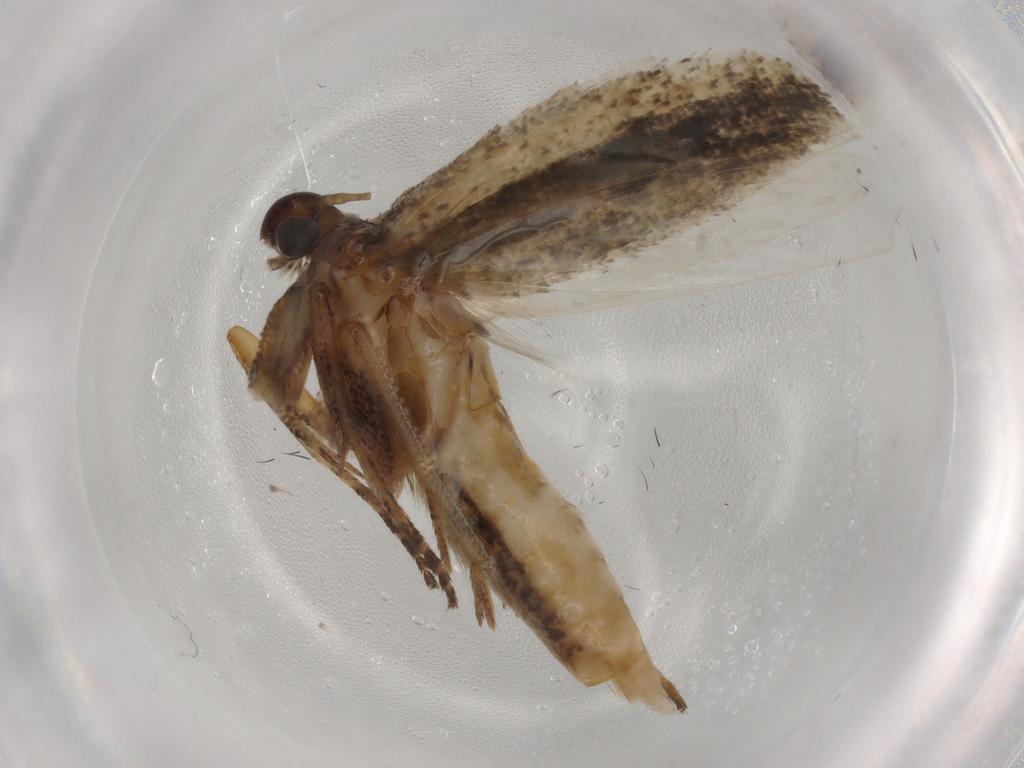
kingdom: Animalia
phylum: Arthropoda
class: Insecta
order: Lepidoptera
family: Gelechiidae
